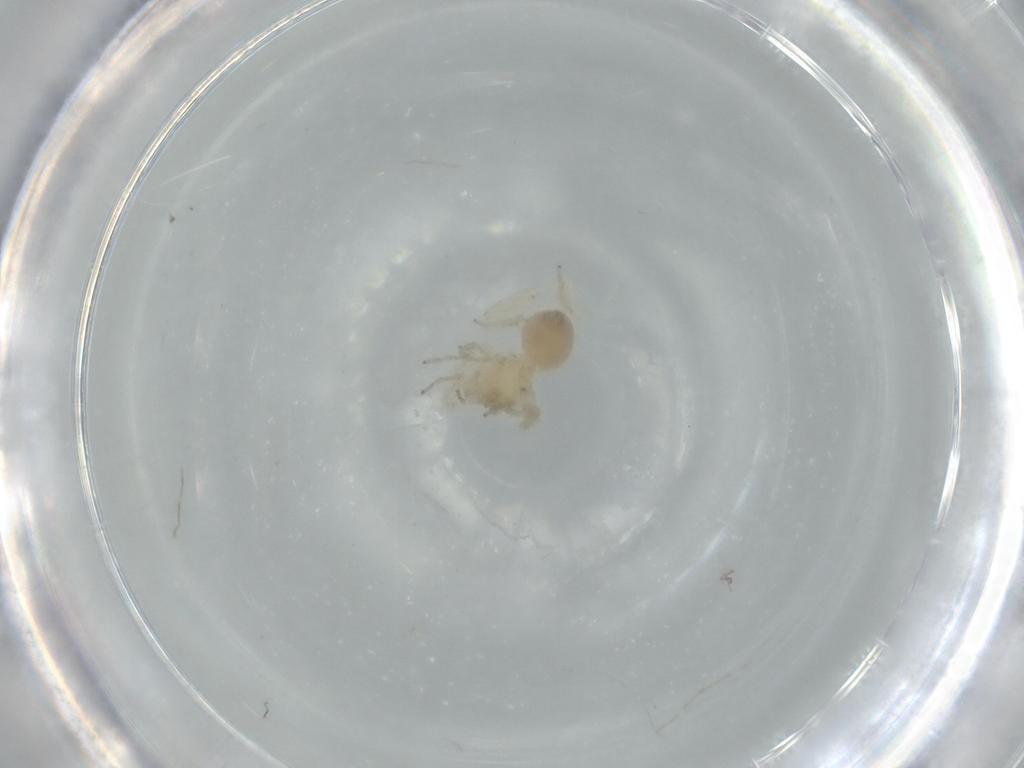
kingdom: Animalia
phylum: Arthropoda
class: Arachnida
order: Araneae
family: Oonopidae
